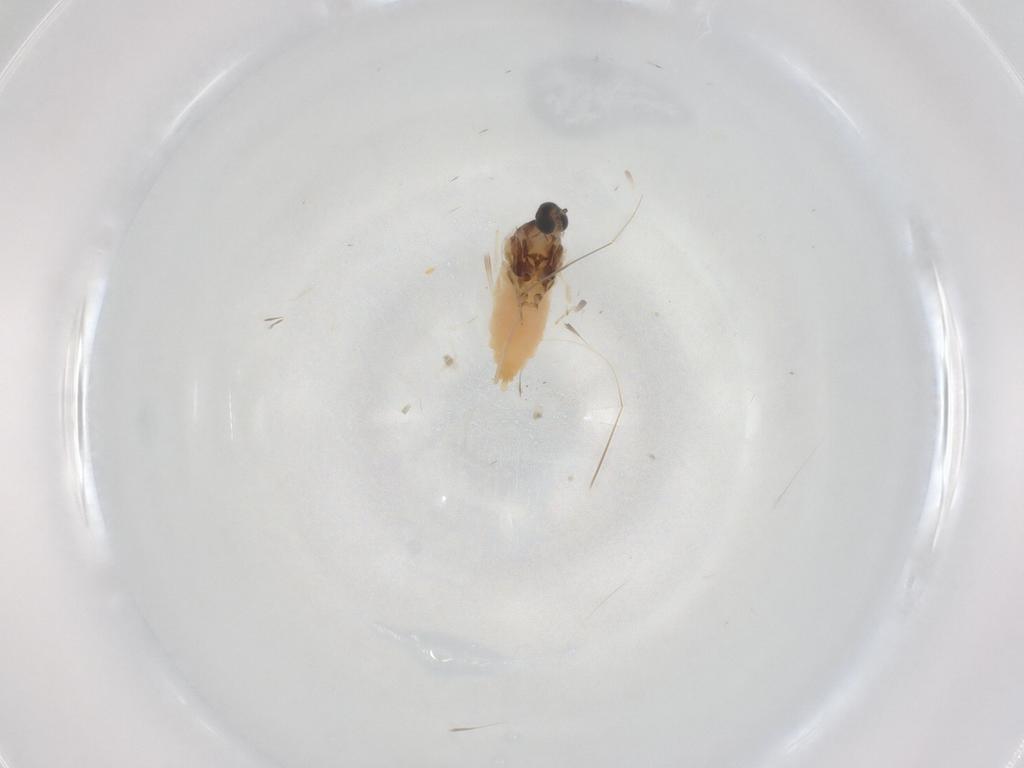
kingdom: Animalia
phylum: Arthropoda
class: Insecta
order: Diptera
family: Cecidomyiidae
